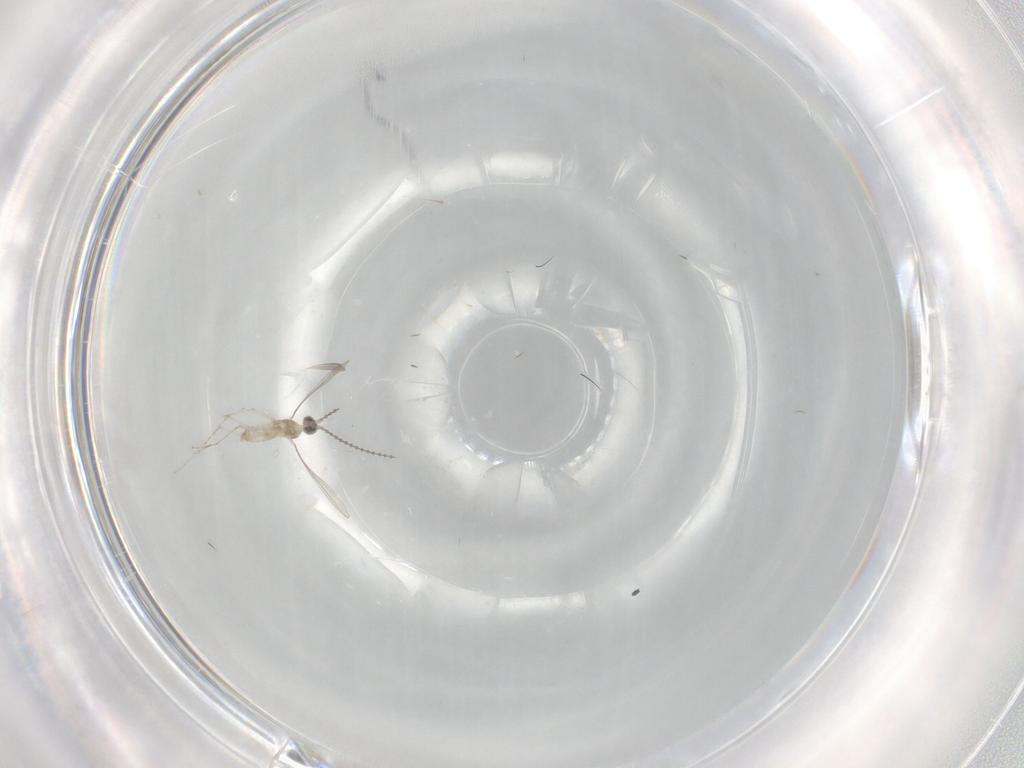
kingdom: Animalia
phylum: Arthropoda
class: Insecta
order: Diptera
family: Cecidomyiidae
